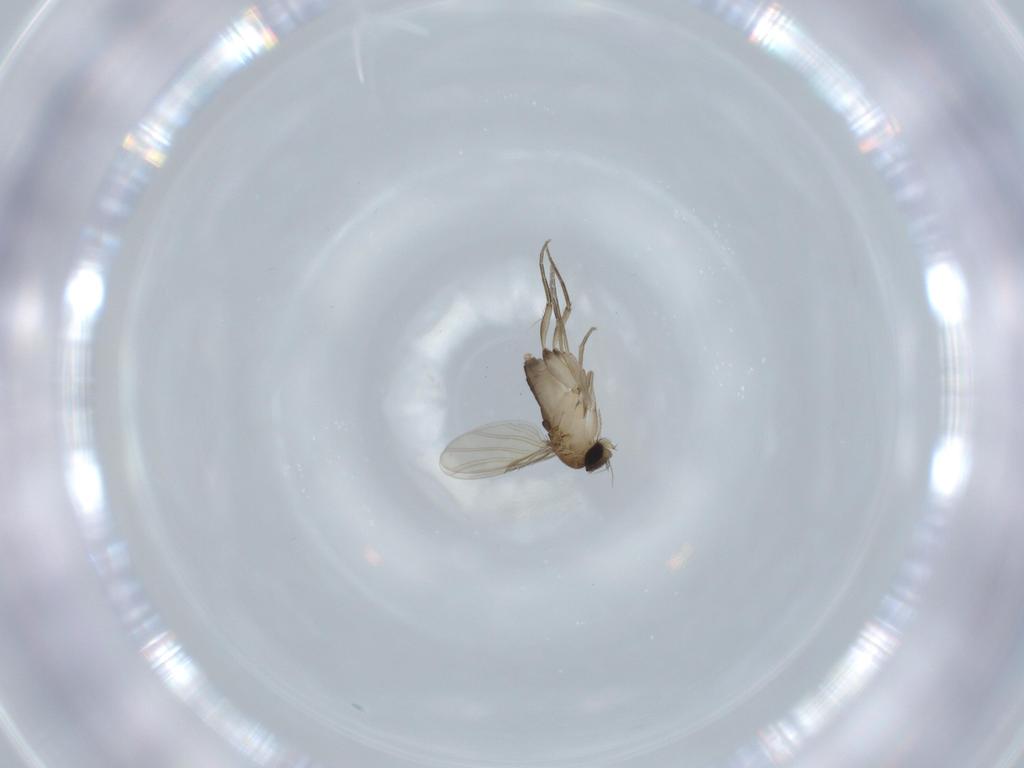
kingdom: Animalia
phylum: Arthropoda
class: Insecta
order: Diptera
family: Phoridae
